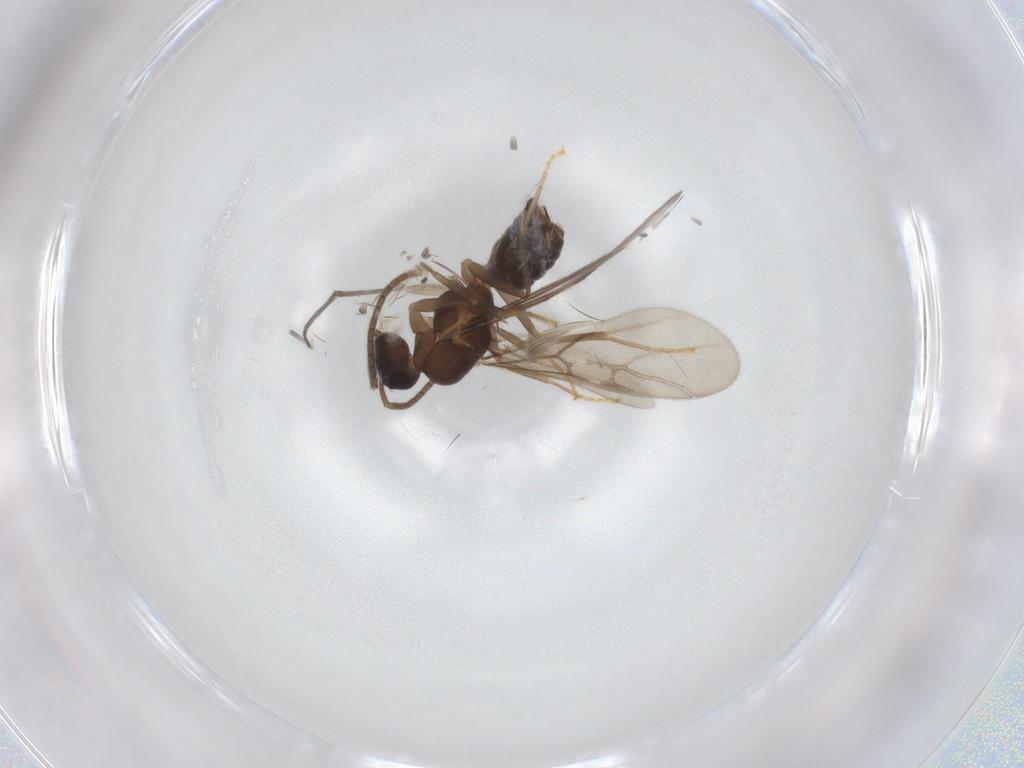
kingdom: Animalia
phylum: Arthropoda
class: Insecta
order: Hymenoptera
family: Formicidae
